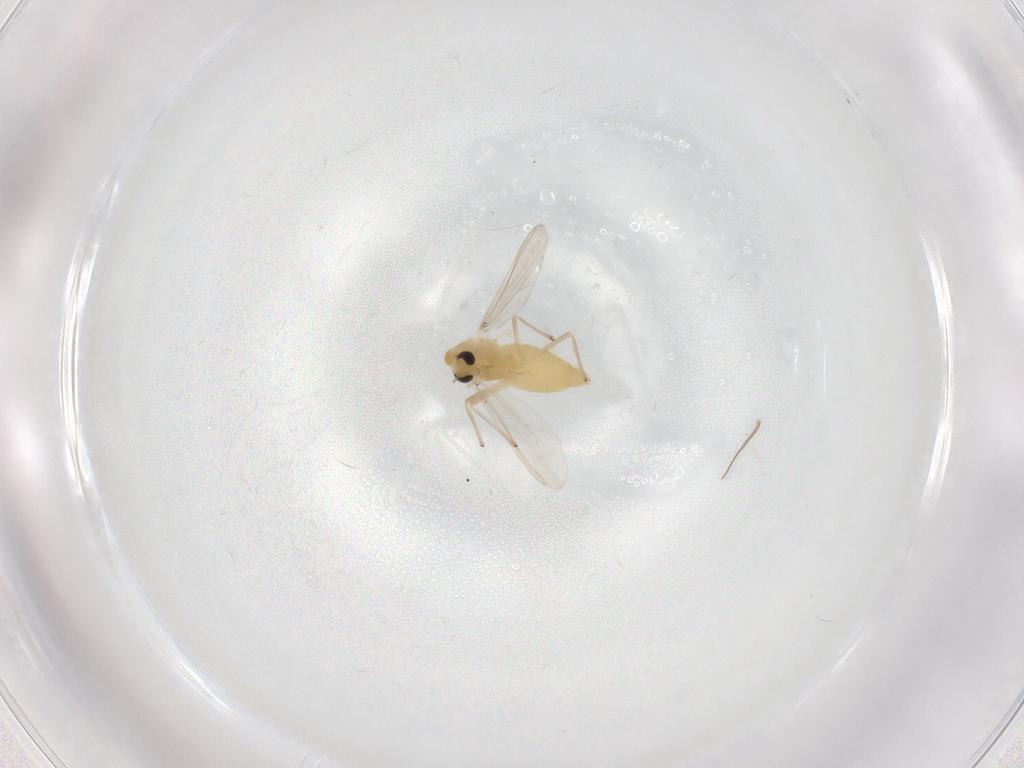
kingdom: Animalia
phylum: Arthropoda
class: Insecta
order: Diptera
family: Chironomidae
